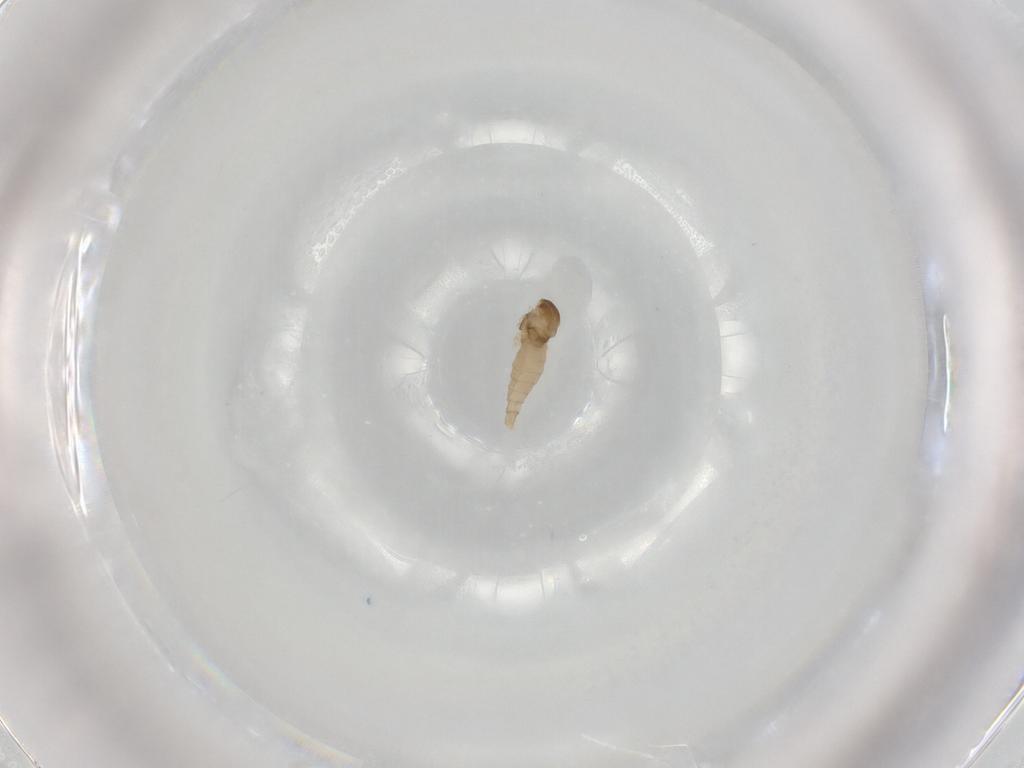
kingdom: Animalia
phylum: Arthropoda
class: Insecta
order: Diptera
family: Cecidomyiidae
